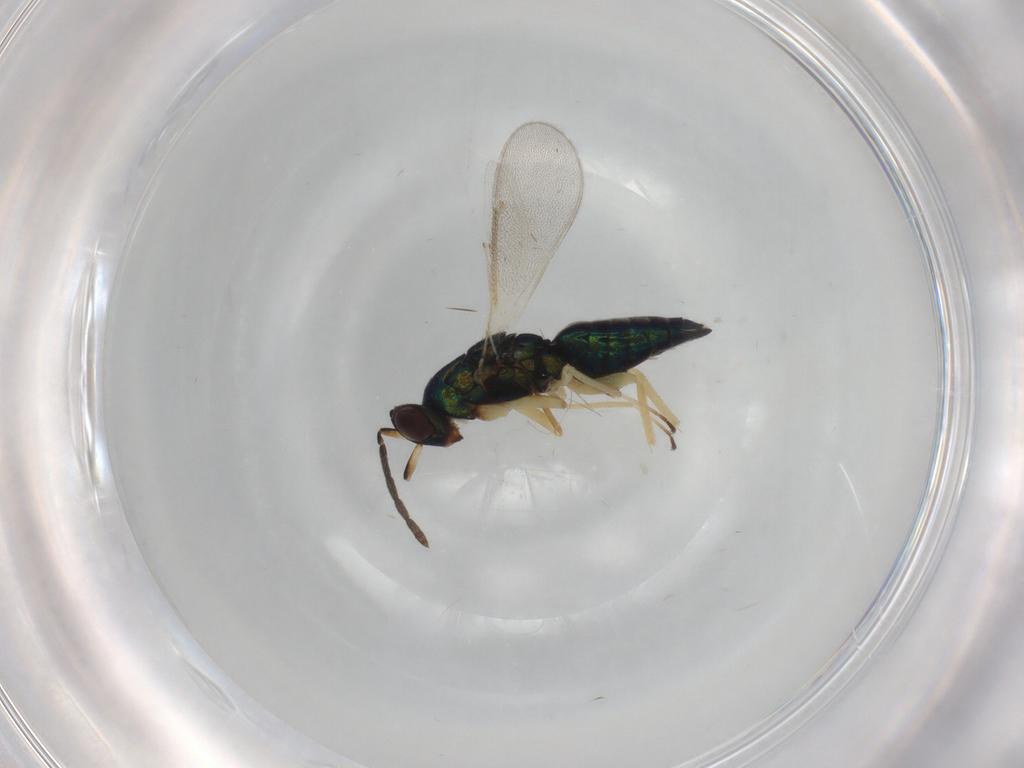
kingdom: Animalia
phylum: Arthropoda
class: Insecta
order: Hymenoptera
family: Eulophidae
